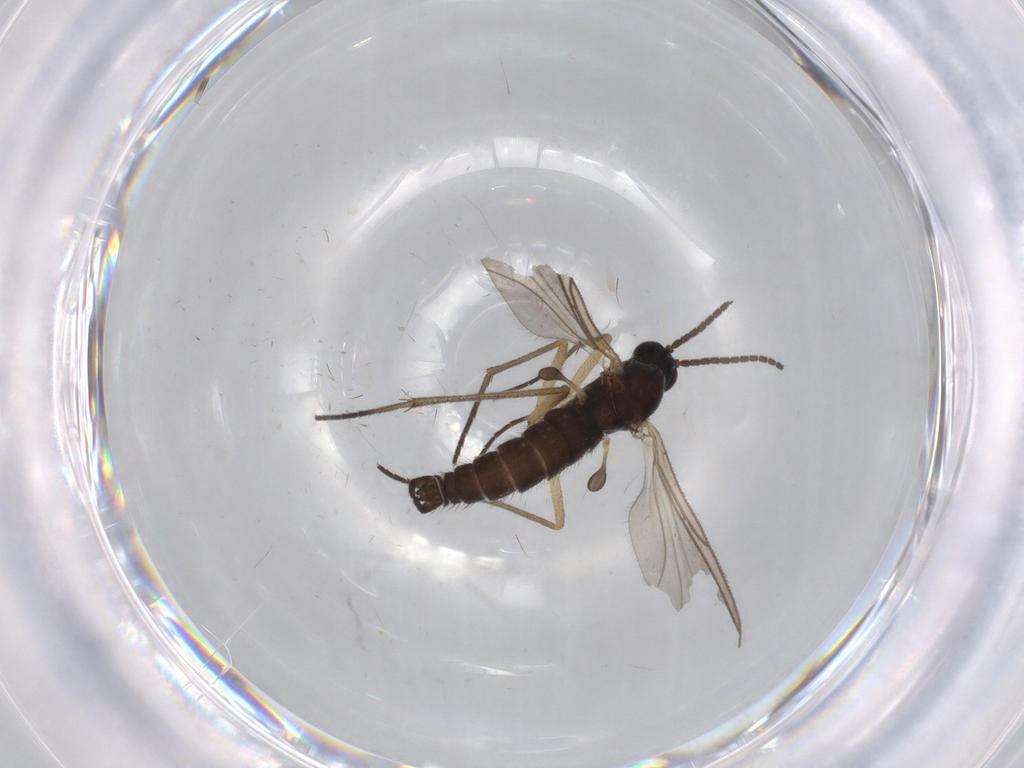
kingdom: Animalia
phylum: Arthropoda
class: Insecta
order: Diptera
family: Sciaridae
